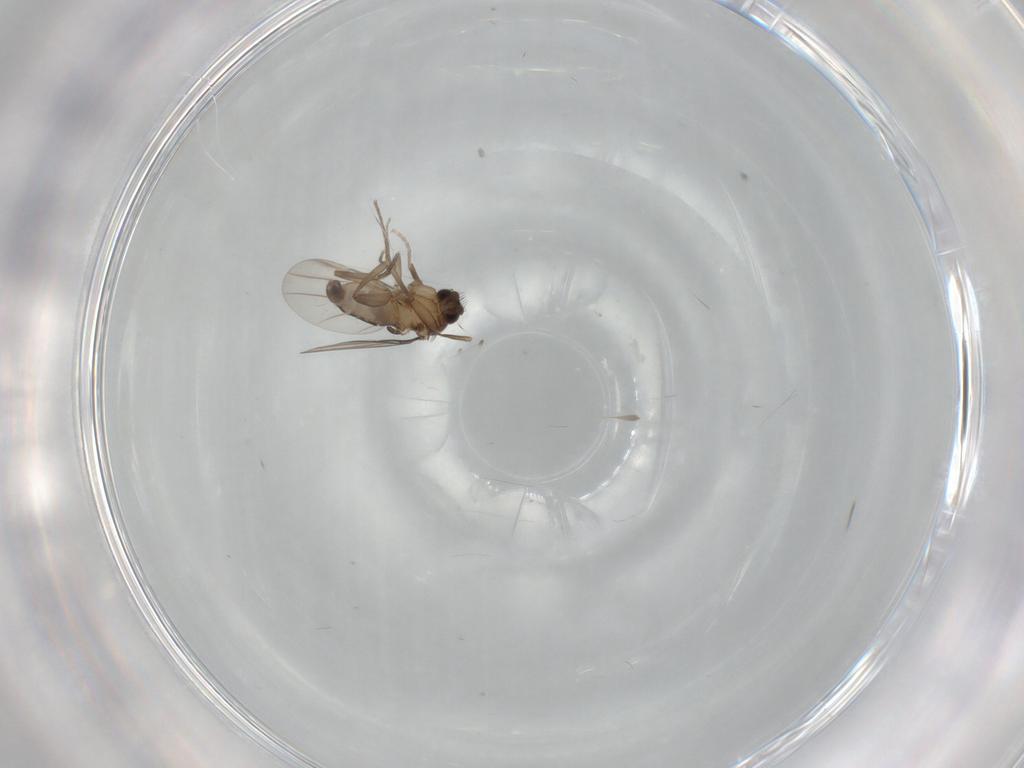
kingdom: Animalia
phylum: Arthropoda
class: Insecta
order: Diptera
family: Phoridae
